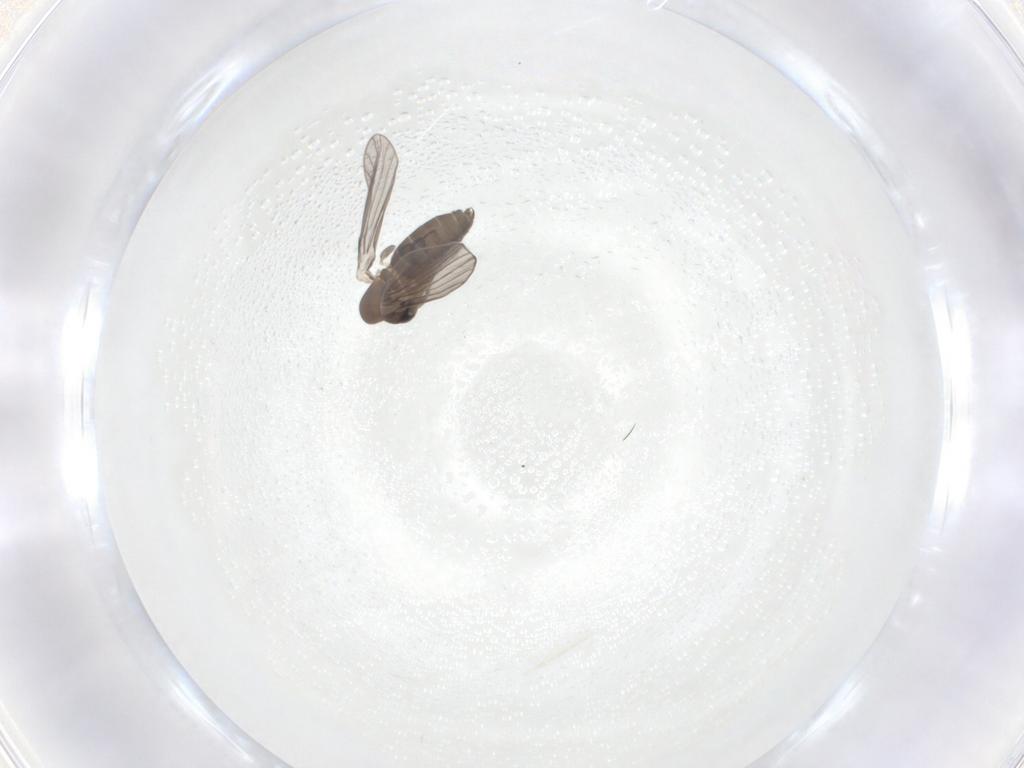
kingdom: Animalia
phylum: Arthropoda
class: Insecta
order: Diptera
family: Psychodidae
